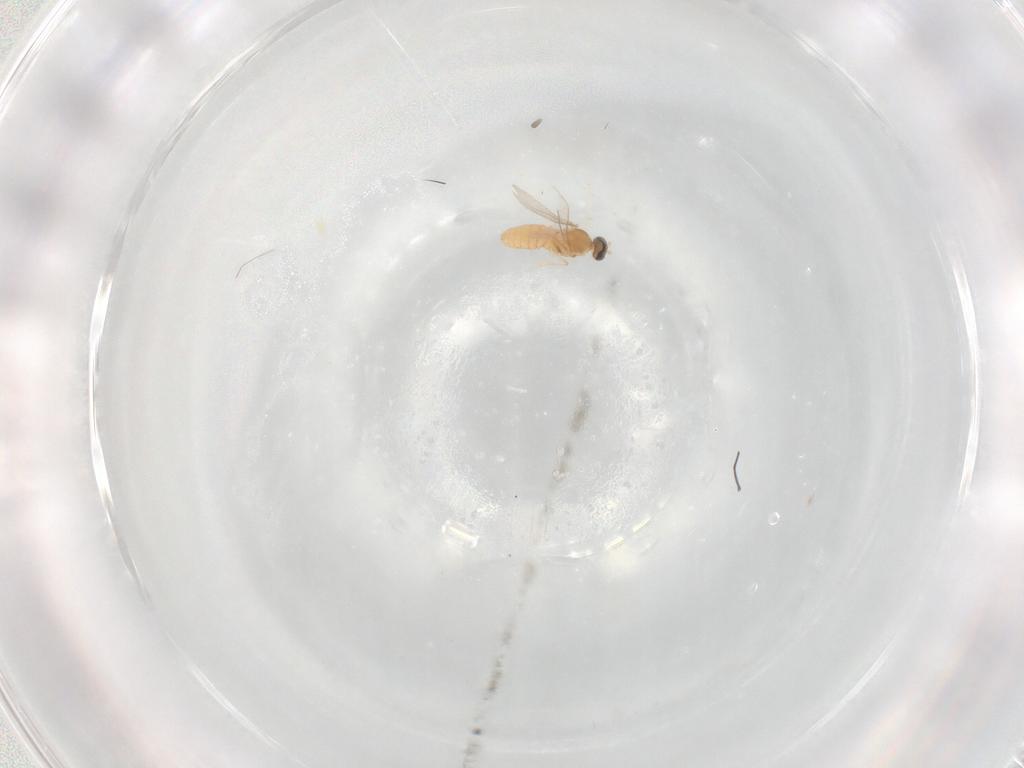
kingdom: Animalia
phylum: Arthropoda
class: Insecta
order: Diptera
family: Cecidomyiidae
